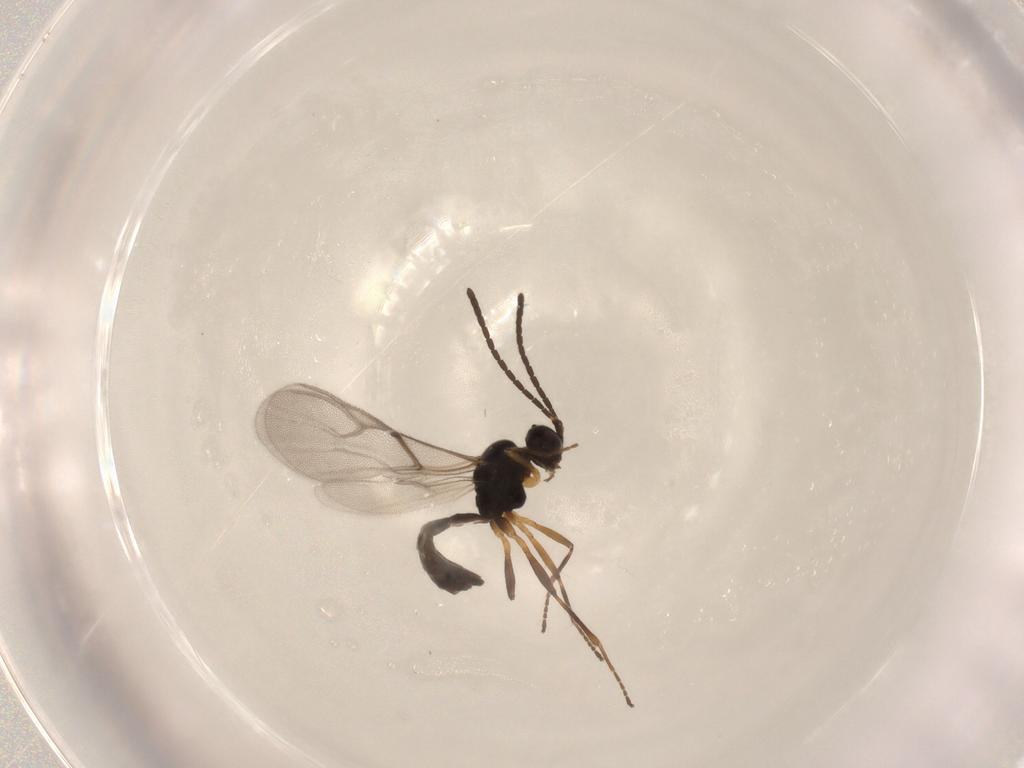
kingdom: Animalia
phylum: Arthropoda
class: Insecta
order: Hymenoptera
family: Braconidae
